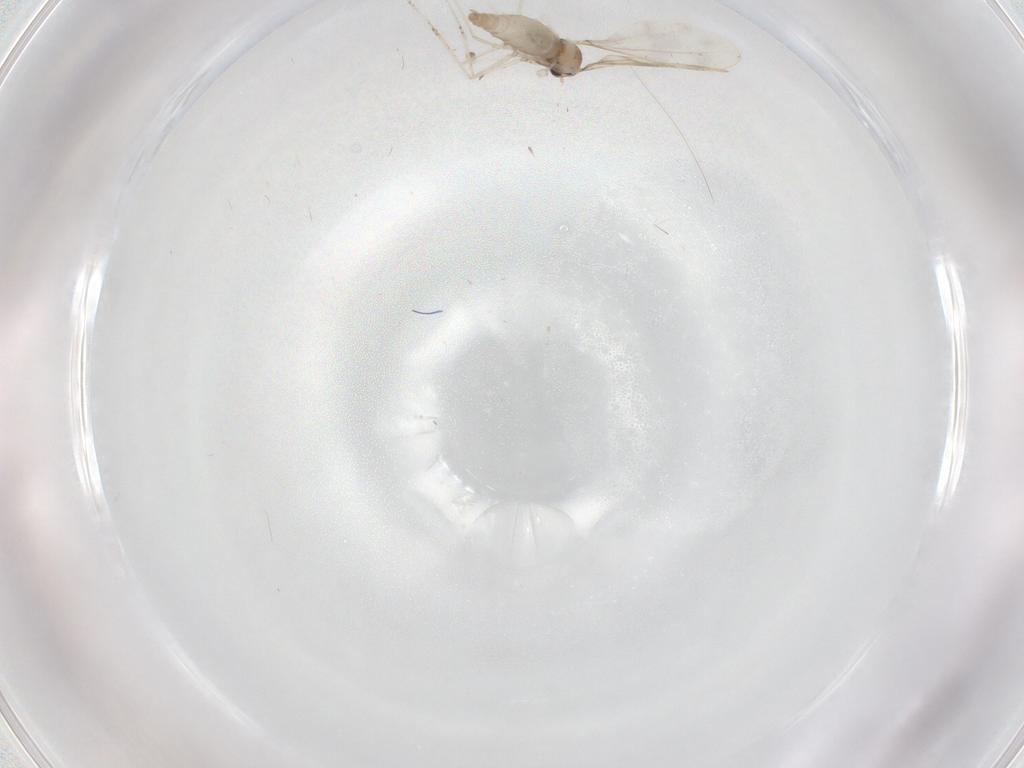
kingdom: Animalia
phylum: Arthropoda
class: Insecta
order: Diptera
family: Cecidomyiidae
